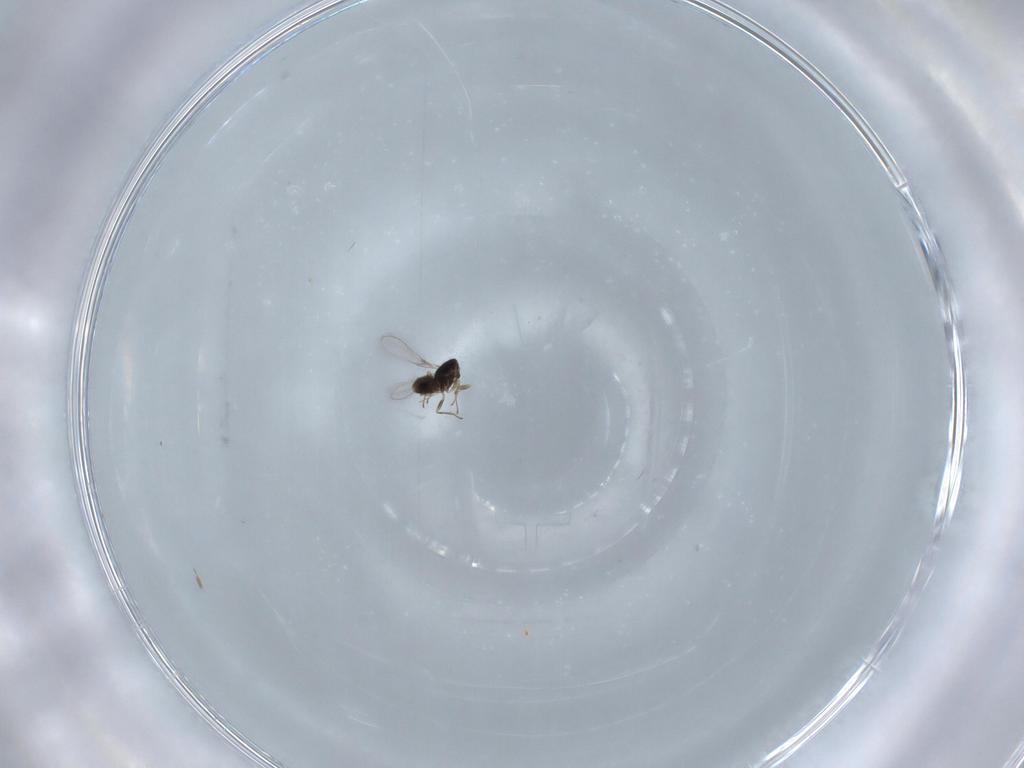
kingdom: Animalia
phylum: Arthropoda
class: Insecta
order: Hymenoptera
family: Mymaridae
